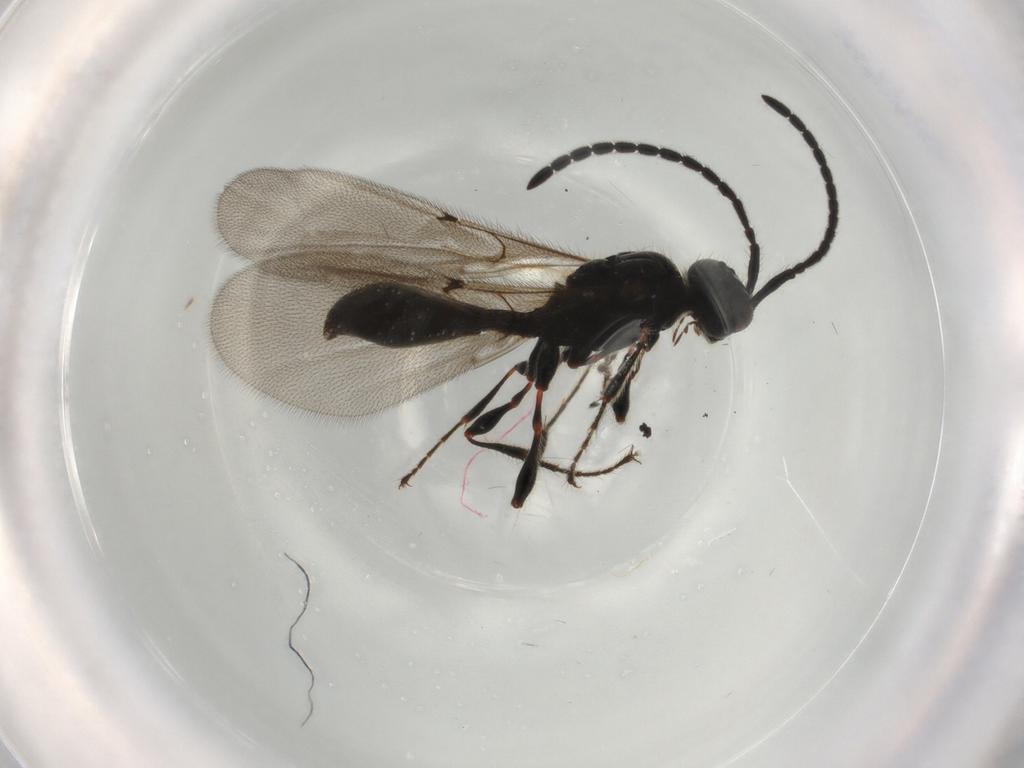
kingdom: Animalia
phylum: Arthropoda
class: Insecta
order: Hymenoptera
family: Diapriidae
